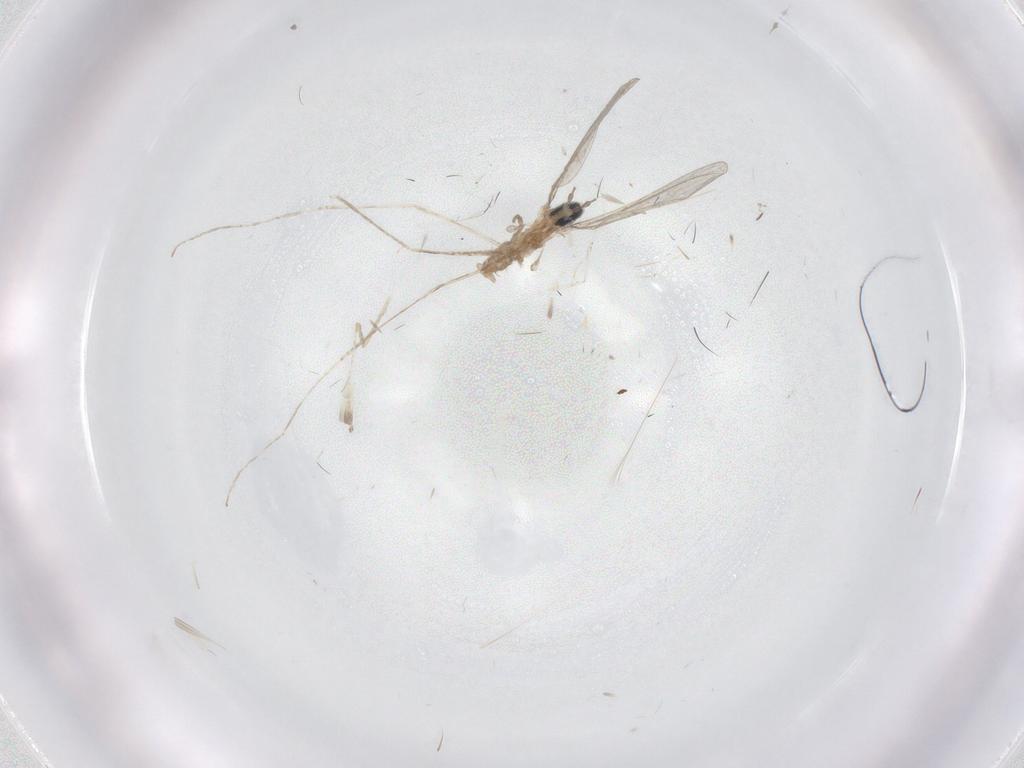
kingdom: Animalia
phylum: Arthropoda
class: Insecta
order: Diptera
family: Cecidomyiidae
